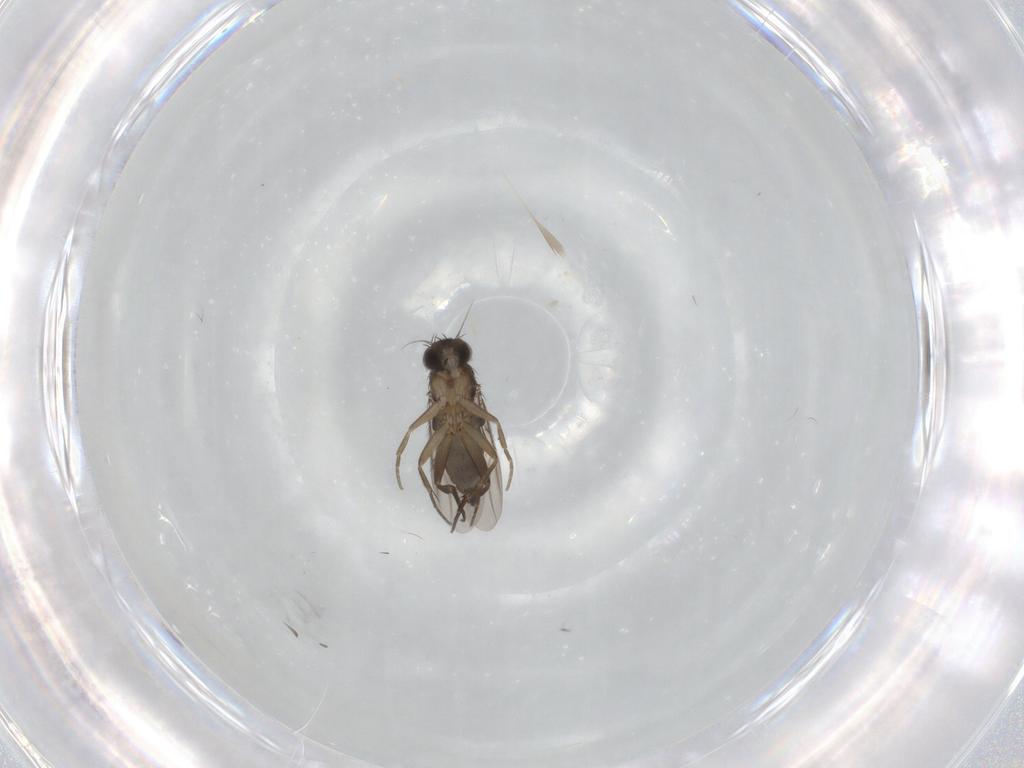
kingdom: Animalia
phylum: Arthropoda
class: Insecta
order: Diptera
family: Phoridae
